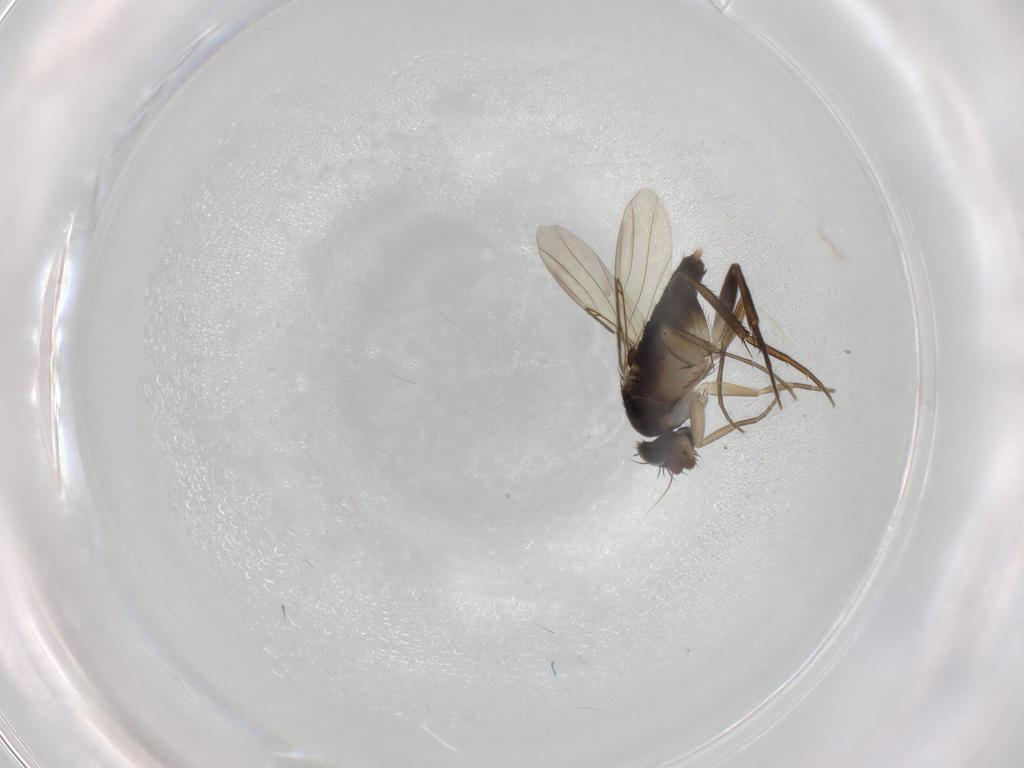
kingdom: Animalia
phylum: Arthropoda
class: Insecta
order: Diptera
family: Phoridae
